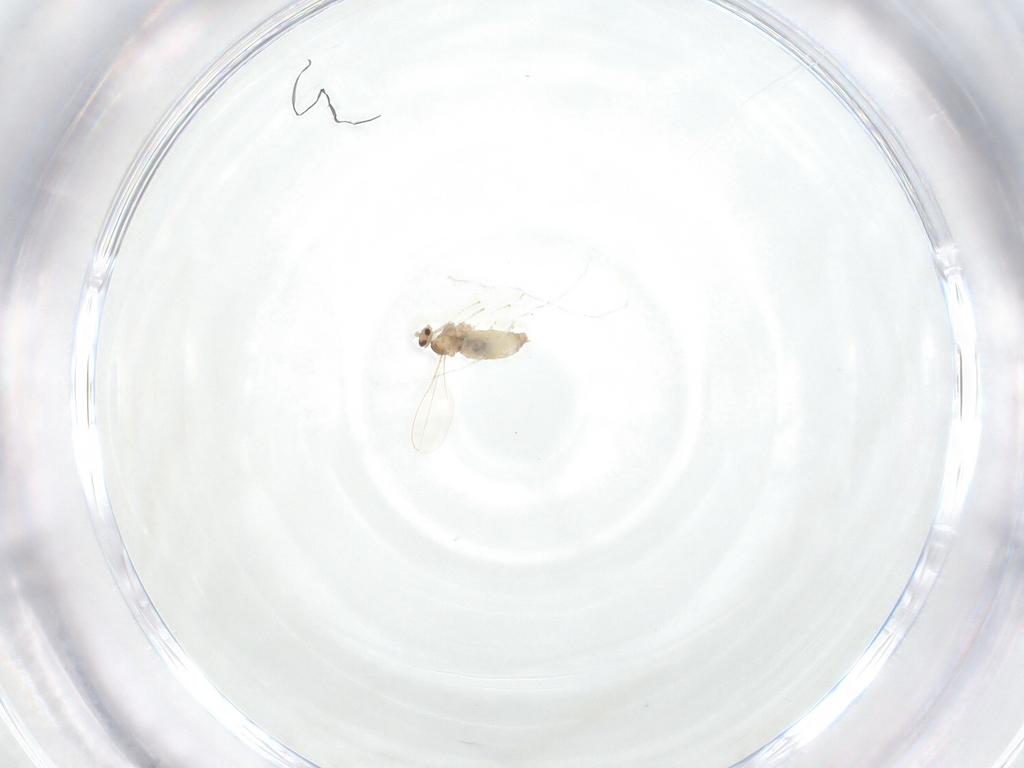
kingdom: Animalia
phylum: Arthropoda
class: Insecta
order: Diptera
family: Cecidomyiidae
